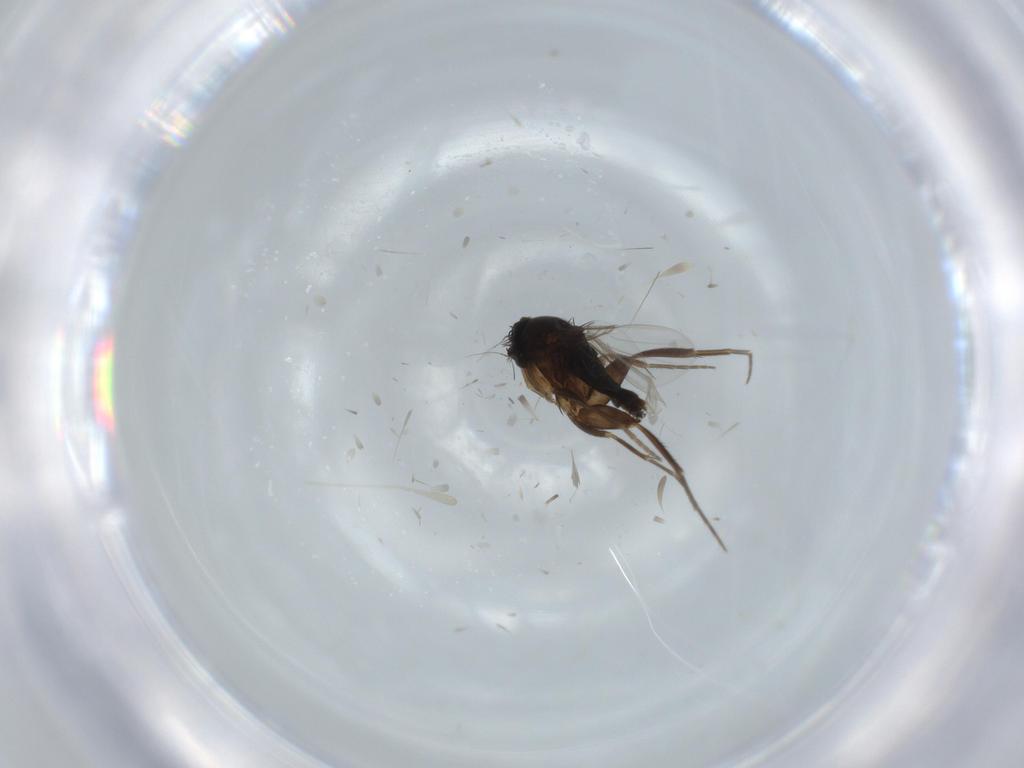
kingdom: Animalia
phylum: Arthropoda
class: Insecta
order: Diptera
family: Phoridae
